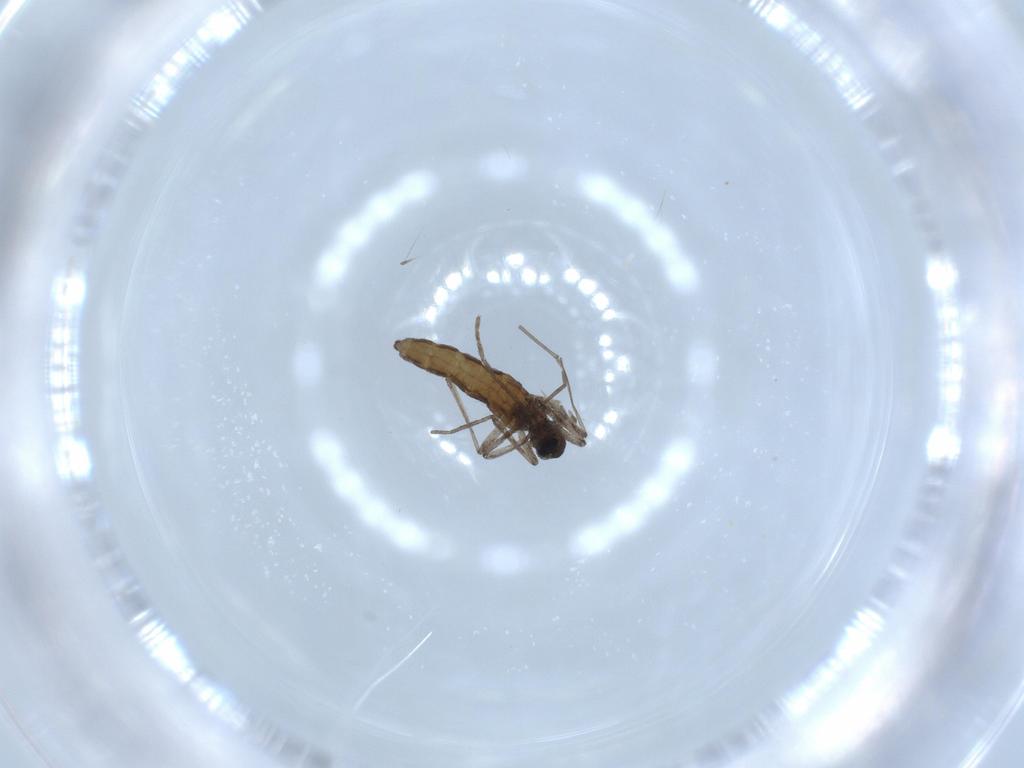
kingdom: Animalia
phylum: Arthropoda
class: Insecta
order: Diptera
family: Cecidomyiidae
